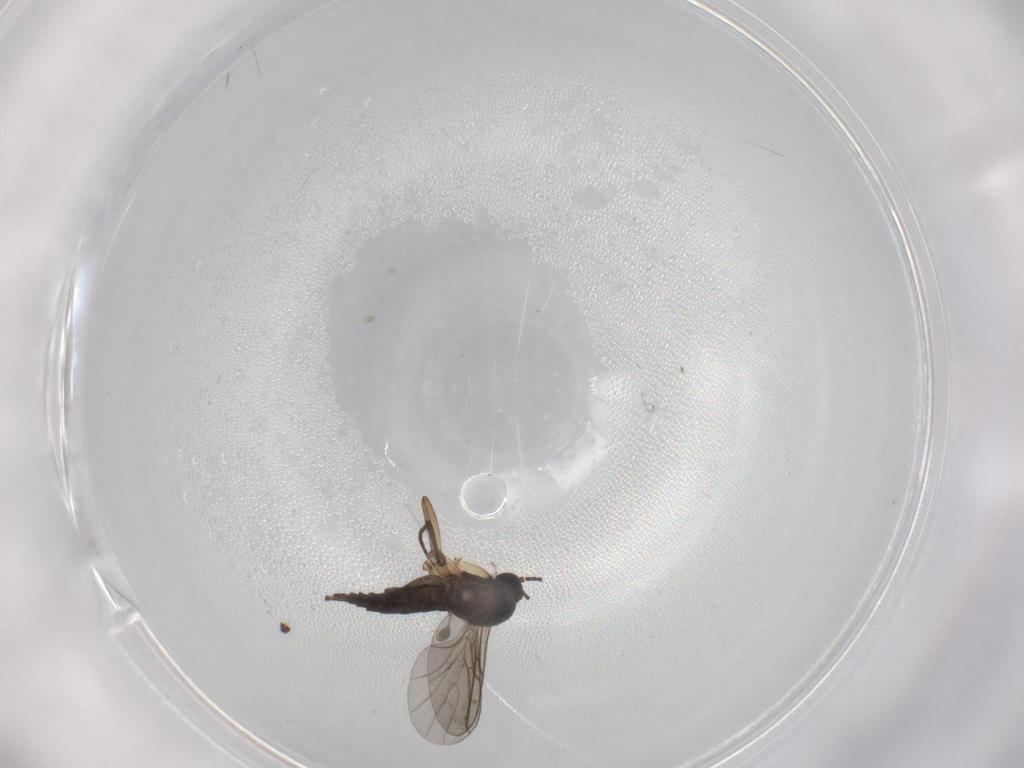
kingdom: Animalia
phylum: Arthropoda
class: Insecta
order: Diptera
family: Sciaridae
